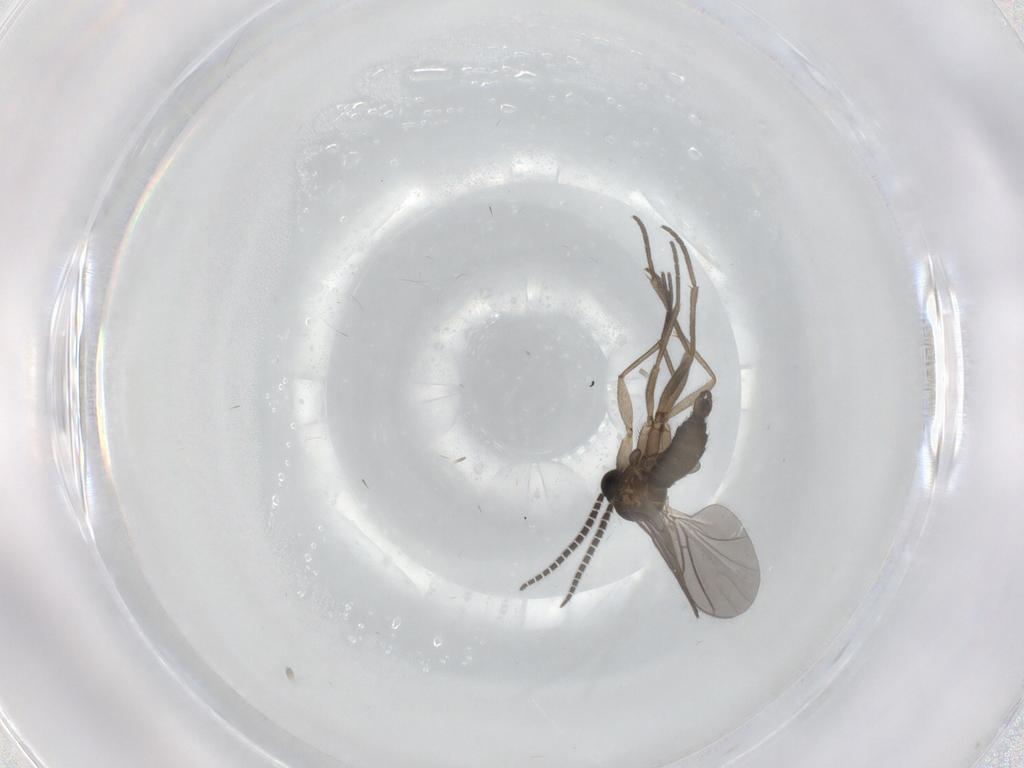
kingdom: Animalia
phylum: Arthropoda
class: Insecta
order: Diptera
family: Sciaridae
